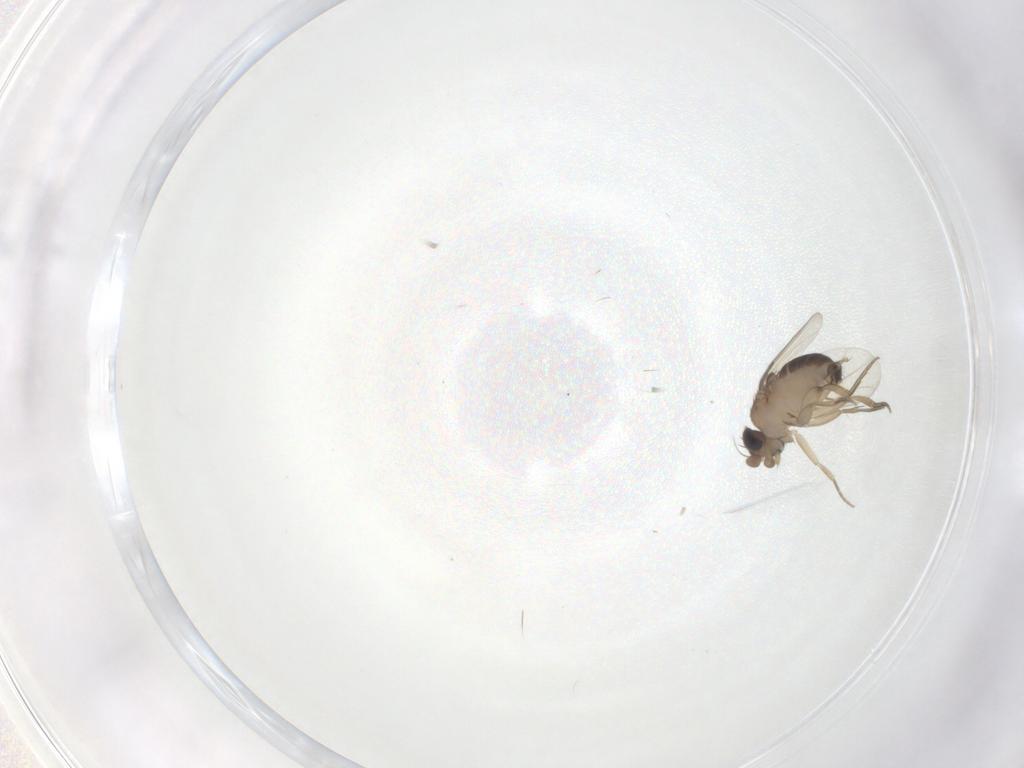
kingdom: Animalia
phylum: Arthropoda
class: Insecta
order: Diptera
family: Phoridae
